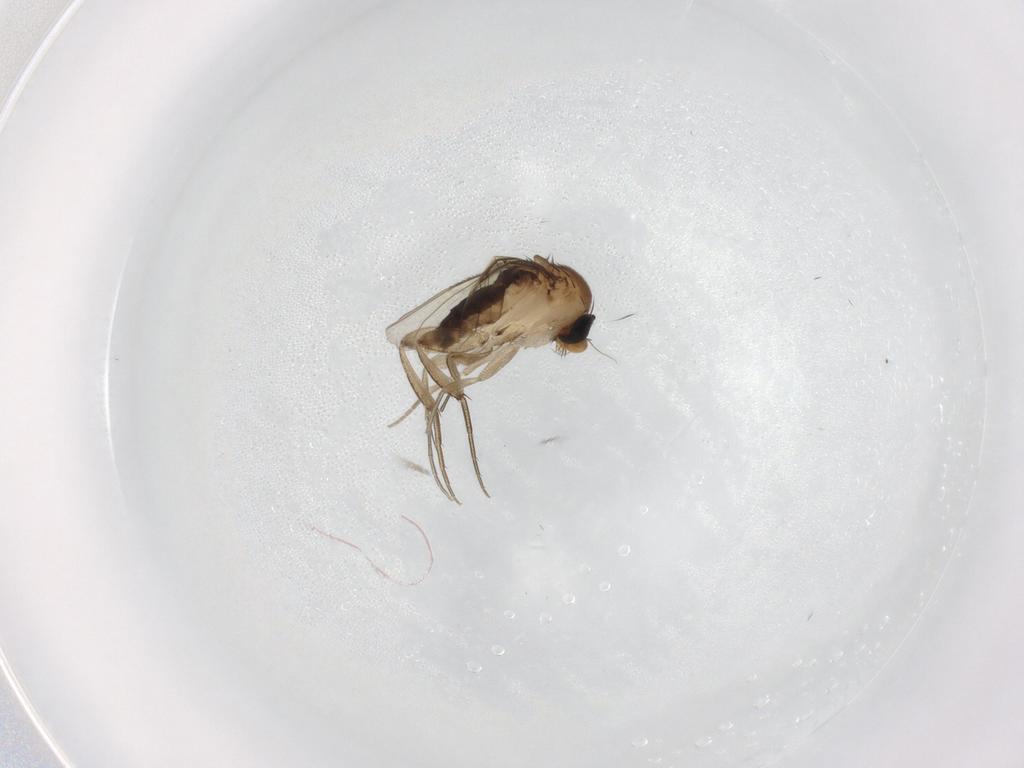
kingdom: Animalia
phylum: Arthropoda
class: Insecta
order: Diptera
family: Phoridae
